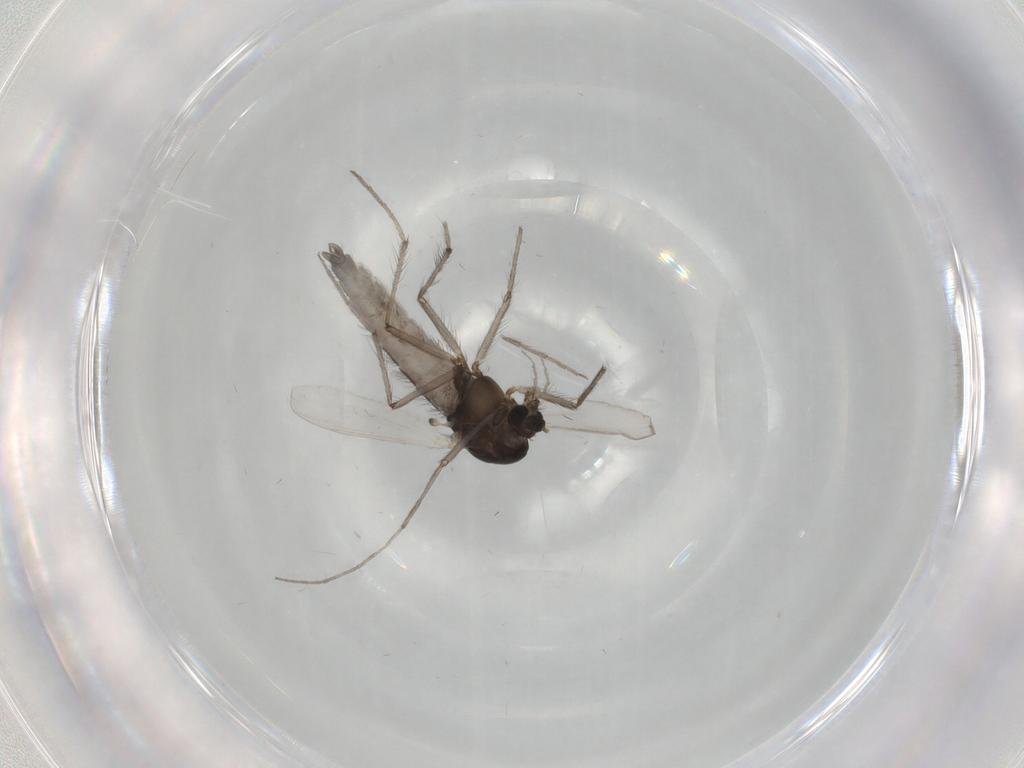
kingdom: Animalia
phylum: Arthropoda
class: Insecta
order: Diptera
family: Chironomidae
